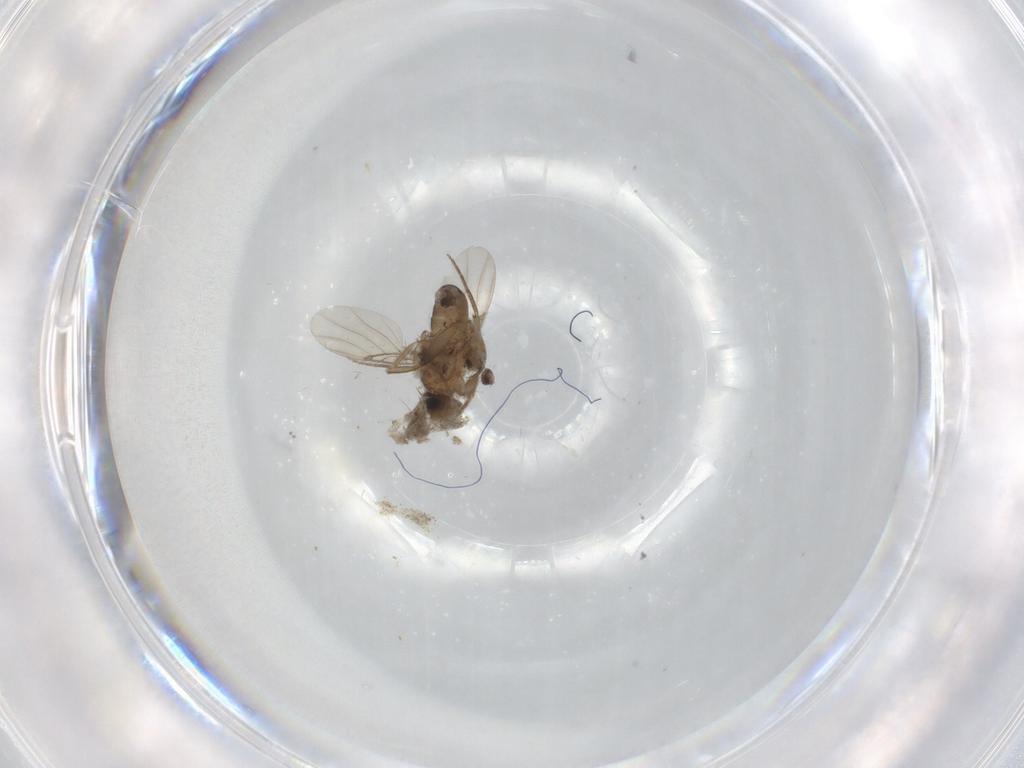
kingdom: Animalia
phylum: Arthropoda
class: Insecta
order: Diptera
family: Phoridae
